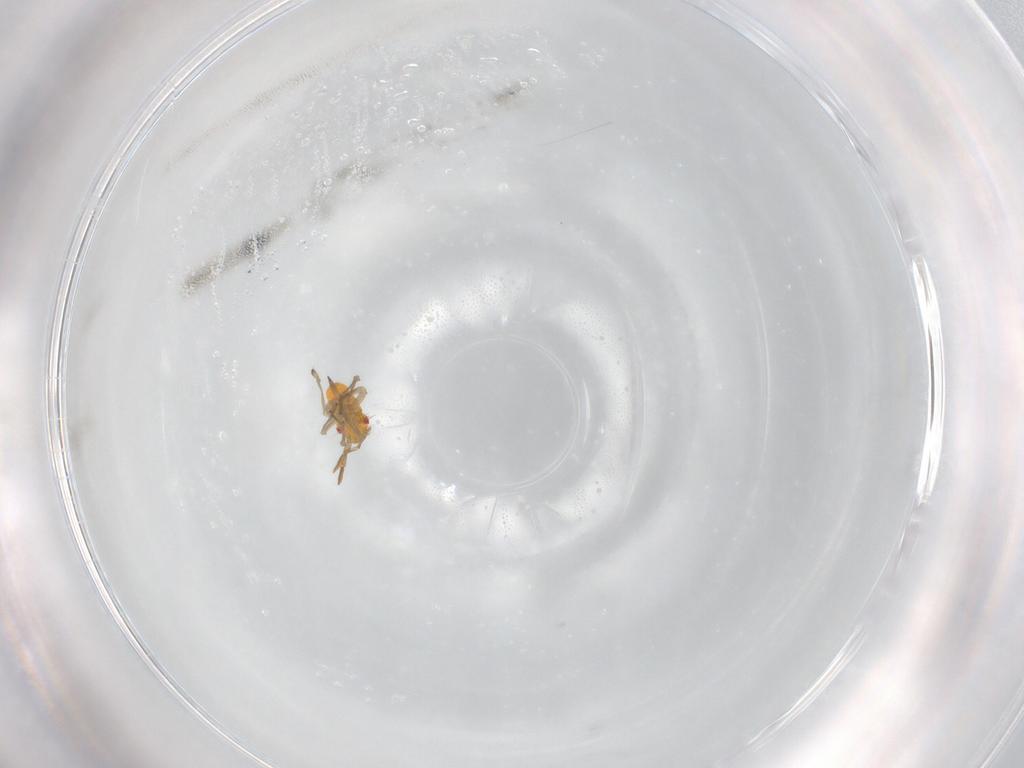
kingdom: Animalia
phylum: Arthropoda
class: Insecta
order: Hemiptera
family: Miridae
